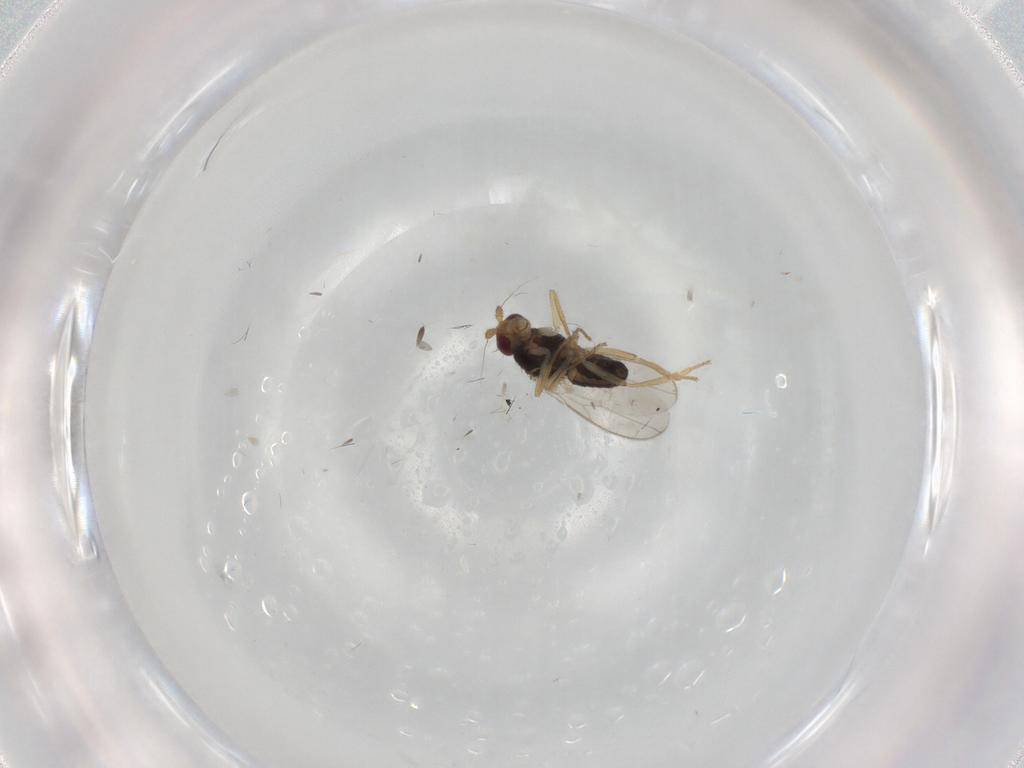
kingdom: Animalia
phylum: Arthropoda
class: Insecta
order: Diptera
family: Sphaeroceridae
